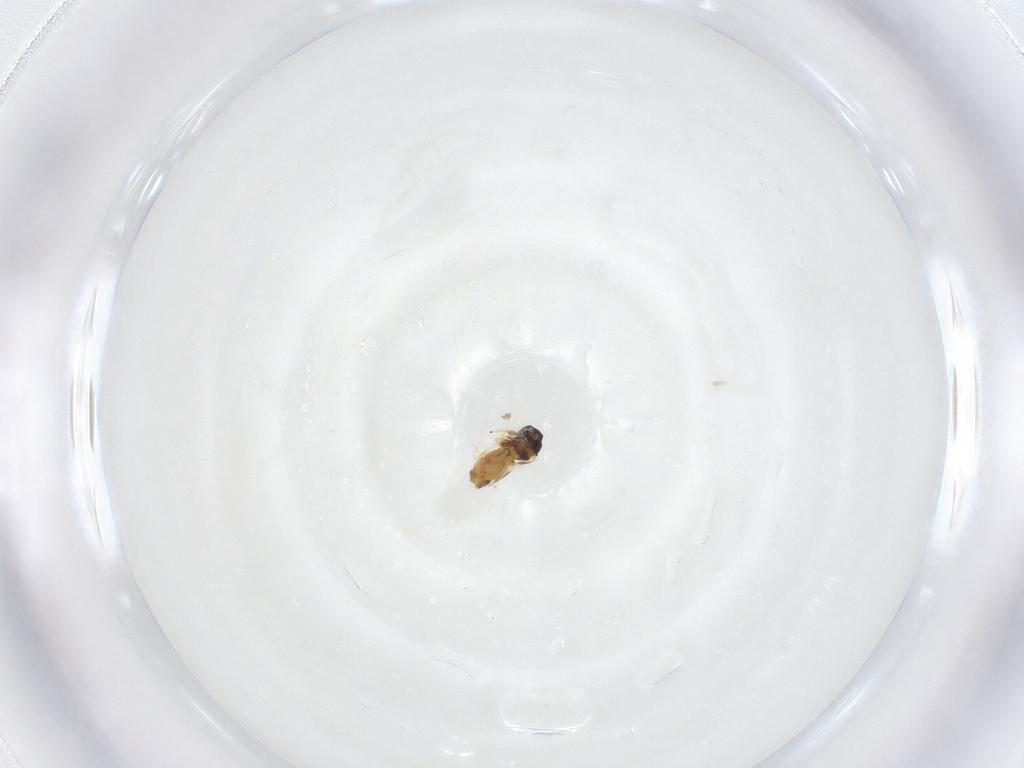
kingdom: Animalia
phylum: Arthropoda
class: Insecta
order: Hemiptera
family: Aleyrodidae
